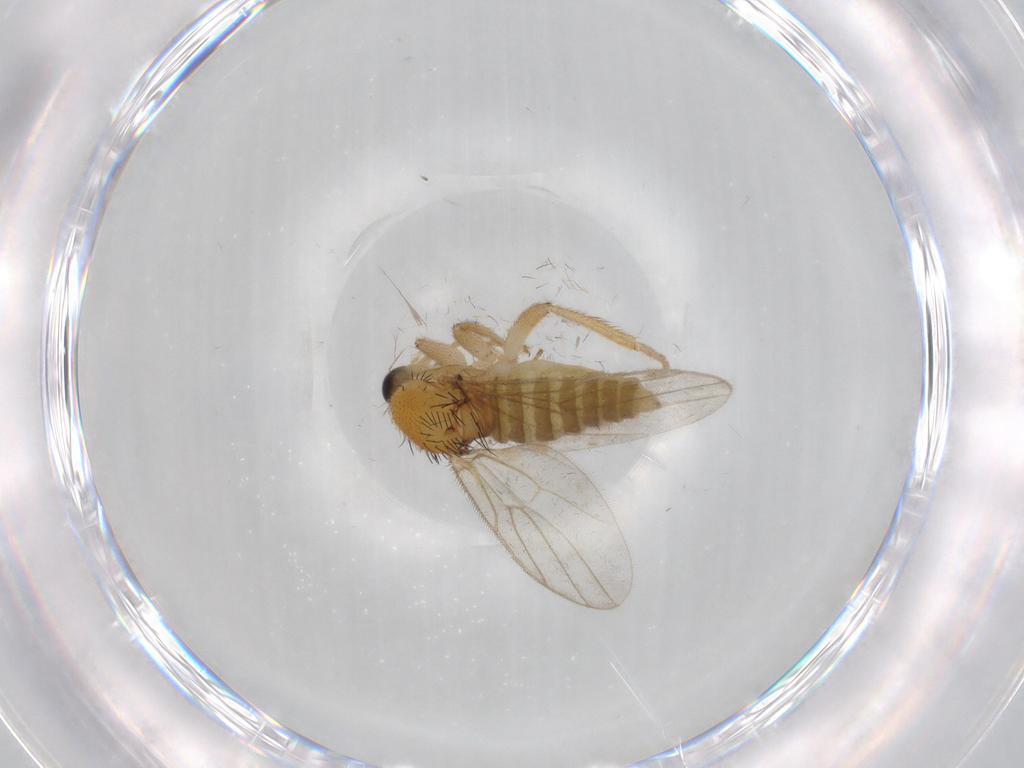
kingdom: Animalia
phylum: Arthropoda
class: Insecta
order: Diptera
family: Hybotidae
